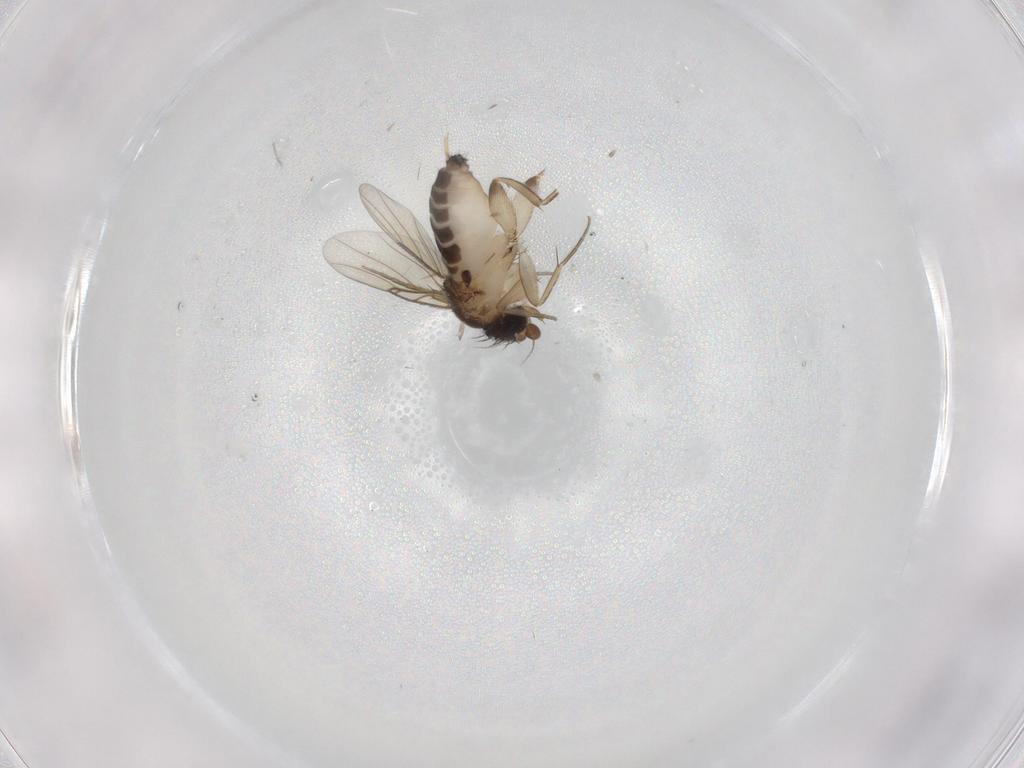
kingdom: Animalia
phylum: Arthropoda
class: Insecta
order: Diptera
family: Phoridae
